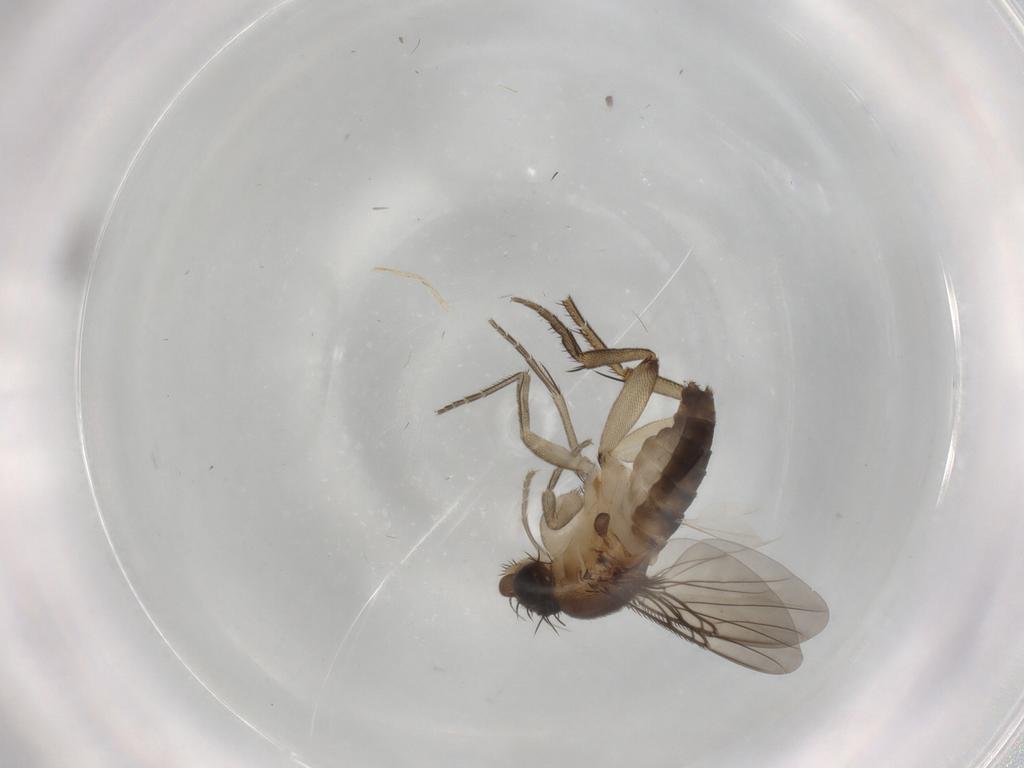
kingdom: Animalia
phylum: Arthropoda
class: Insecta
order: Diptera
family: Phoridae
